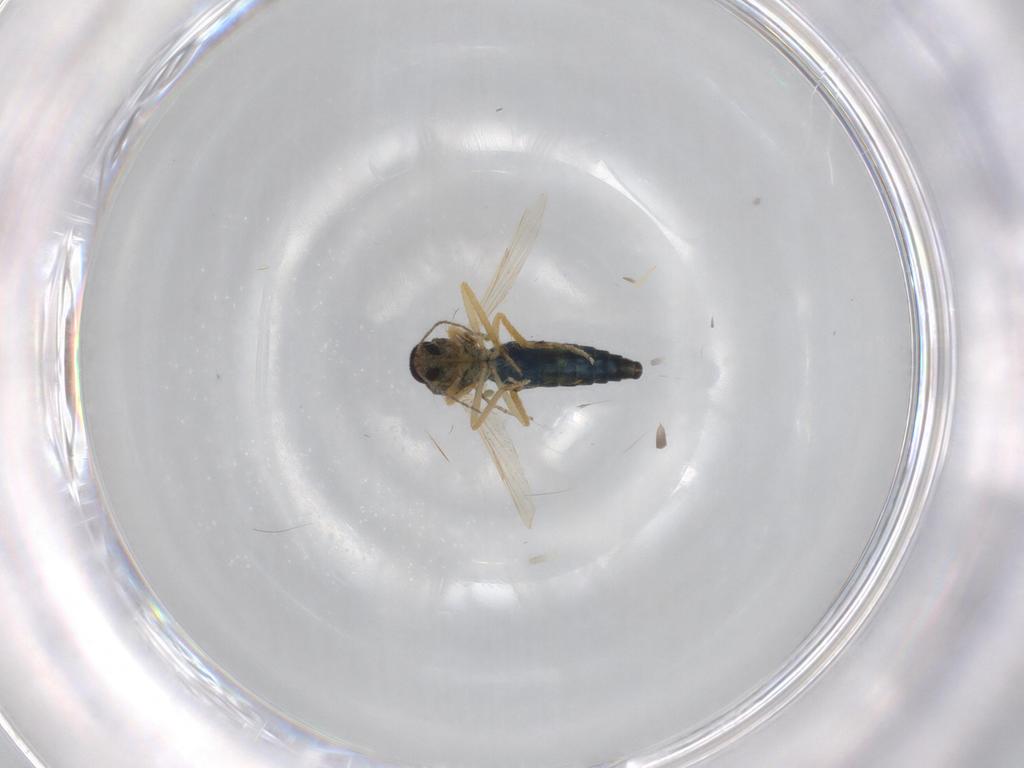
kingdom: Animalia
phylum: Arthropoda
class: Insecta
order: Diptera
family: Ceratopogonidae
